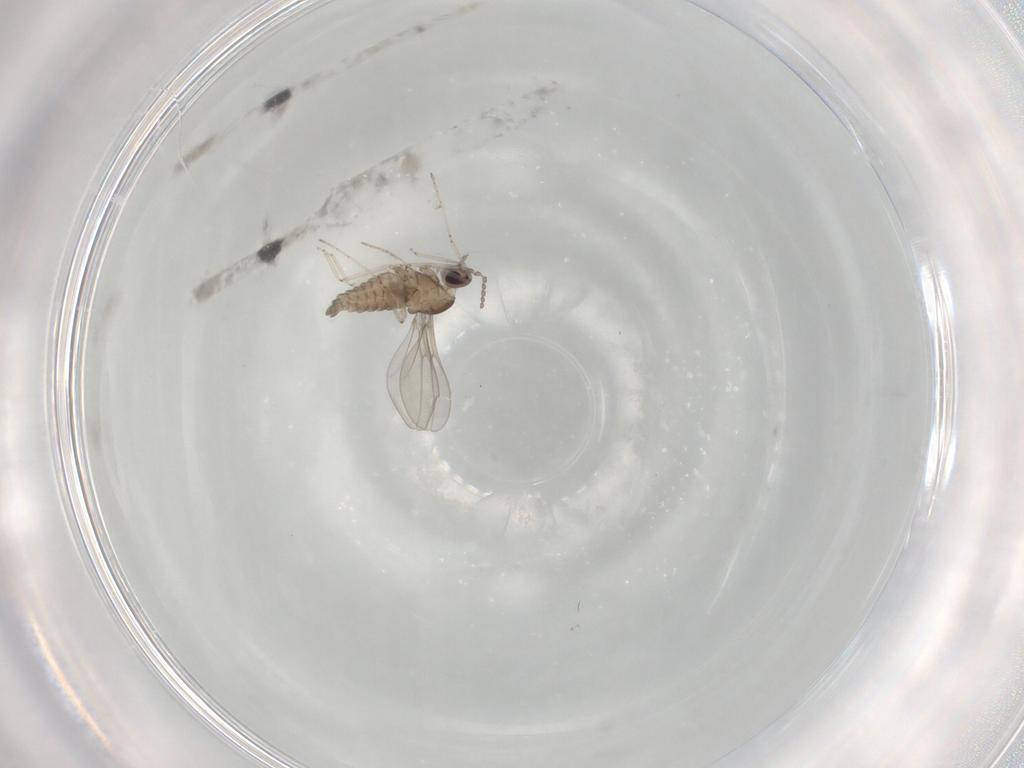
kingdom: Animalia
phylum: Arthropoda
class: Insecta
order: Diptera
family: Cecidomyiidae
